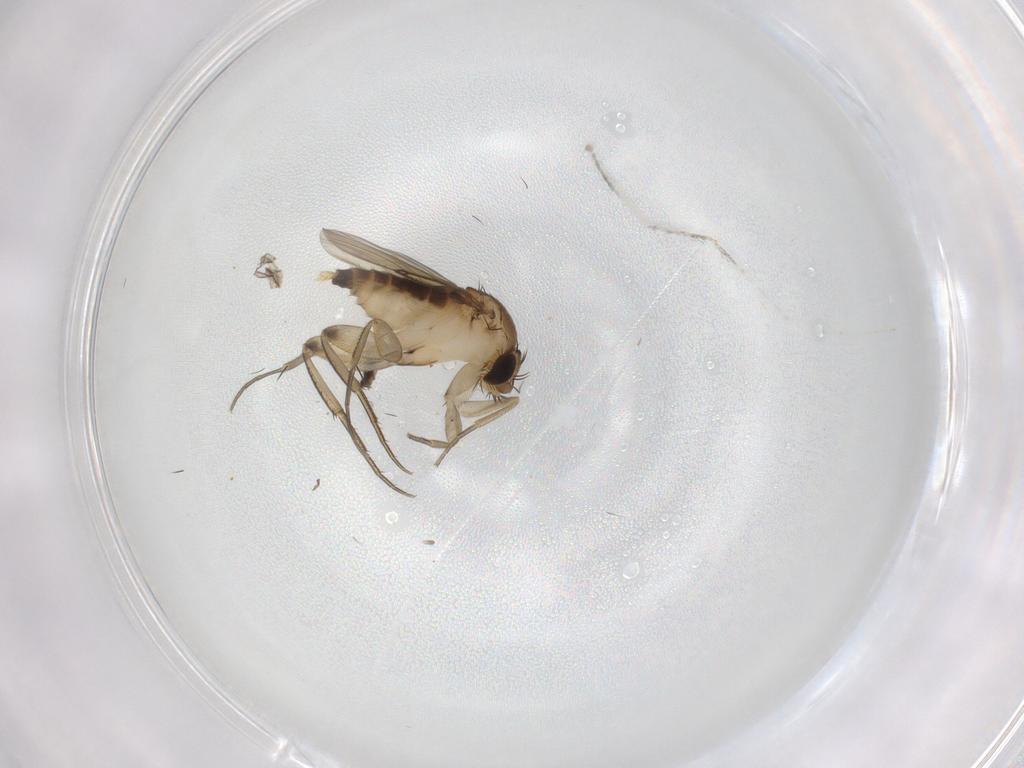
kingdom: Animalia
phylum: Arthropoda
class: Insecta
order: Diptera
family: Cecidomyiidae
